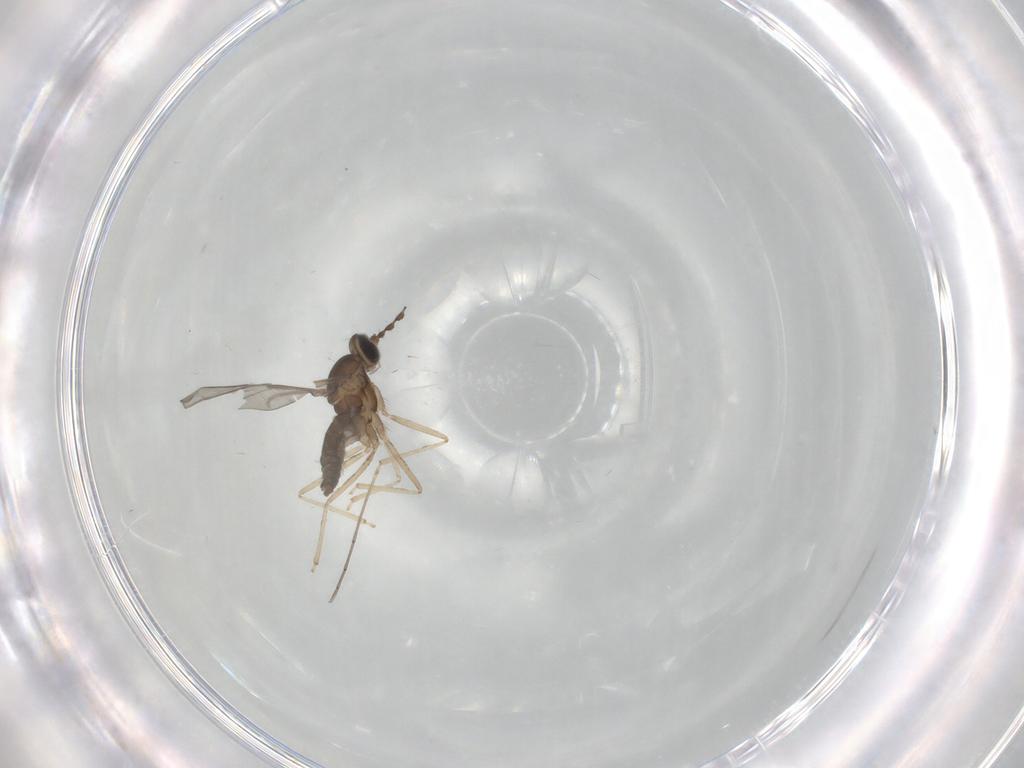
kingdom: Animalia
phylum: Arthropoda
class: Insecta
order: Diptera
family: Cecidomyiidae
